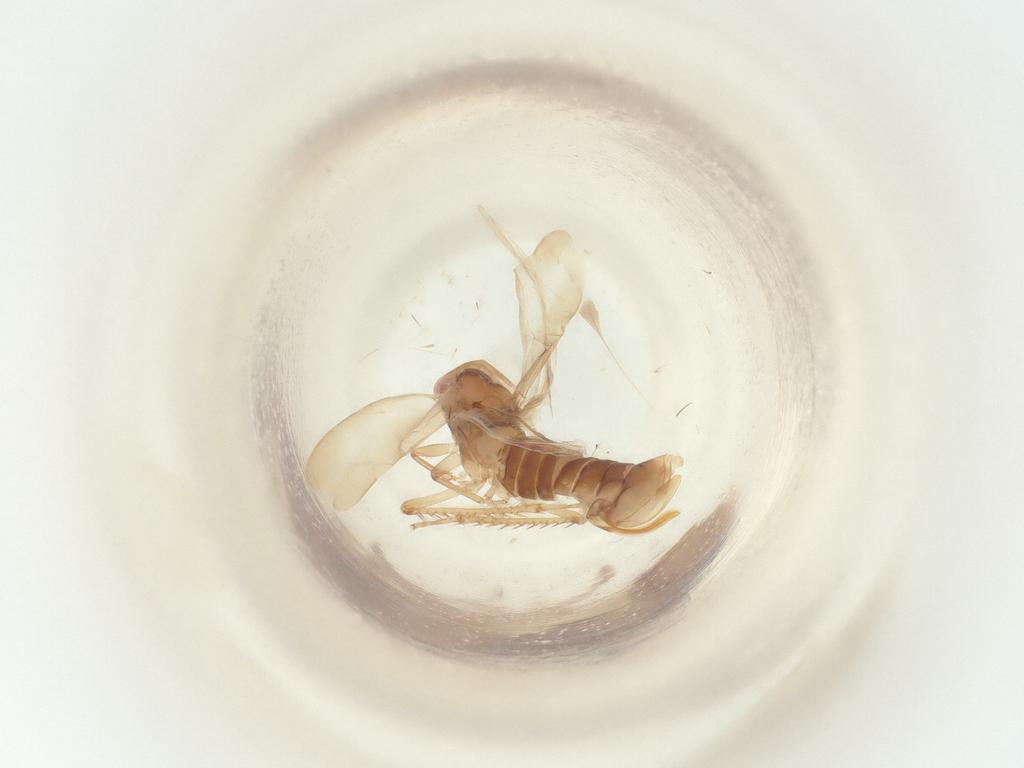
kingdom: Animalia
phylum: Arthropoda
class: Insecta
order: Hemiptera
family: Cicadellidae
